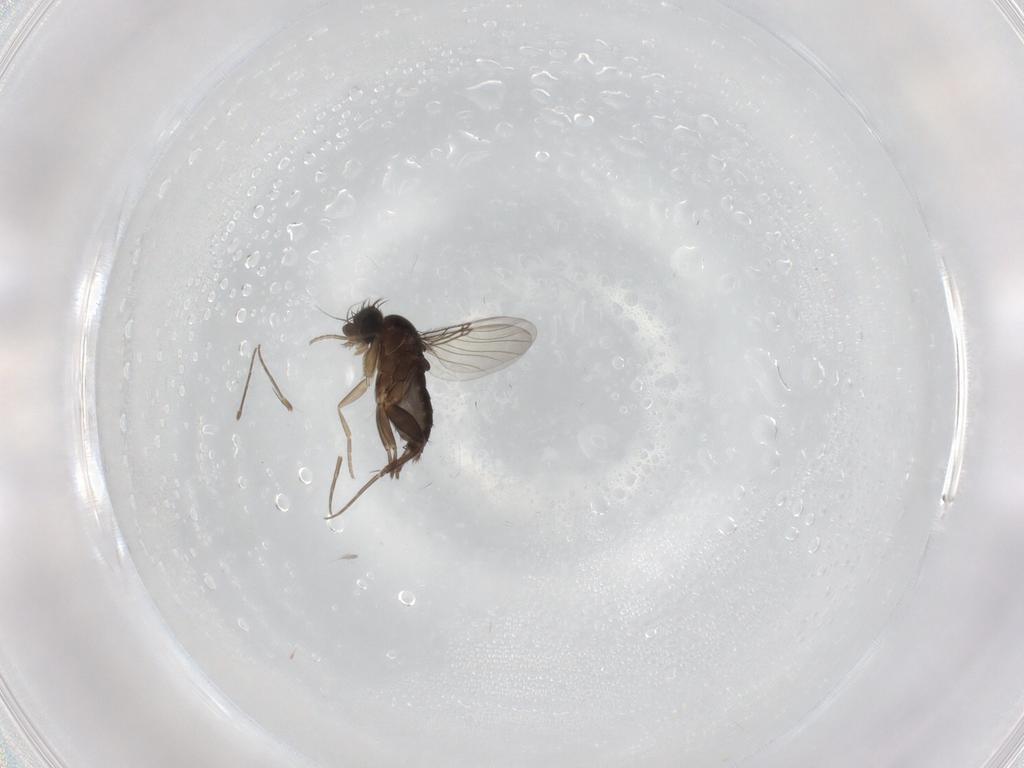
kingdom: Animalia
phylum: Arthropoda
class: Insecta
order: Diptera
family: Phoridae
